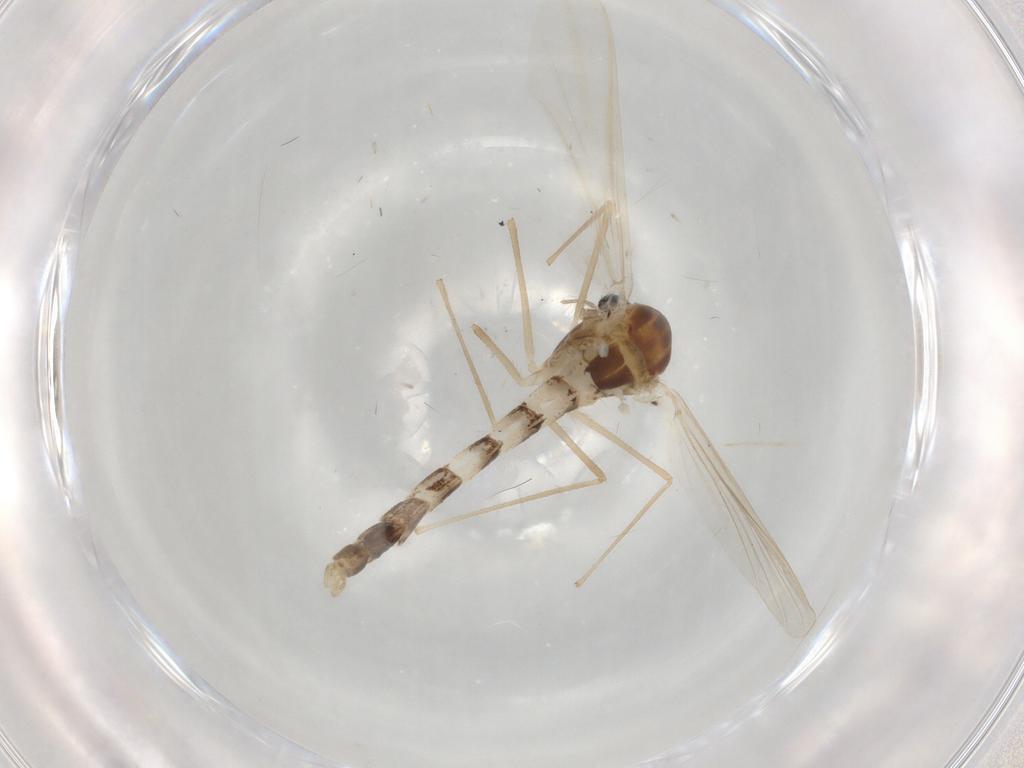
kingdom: Animalia
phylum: Arthropoda
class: Insecta
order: Diptera
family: Chironomidae
